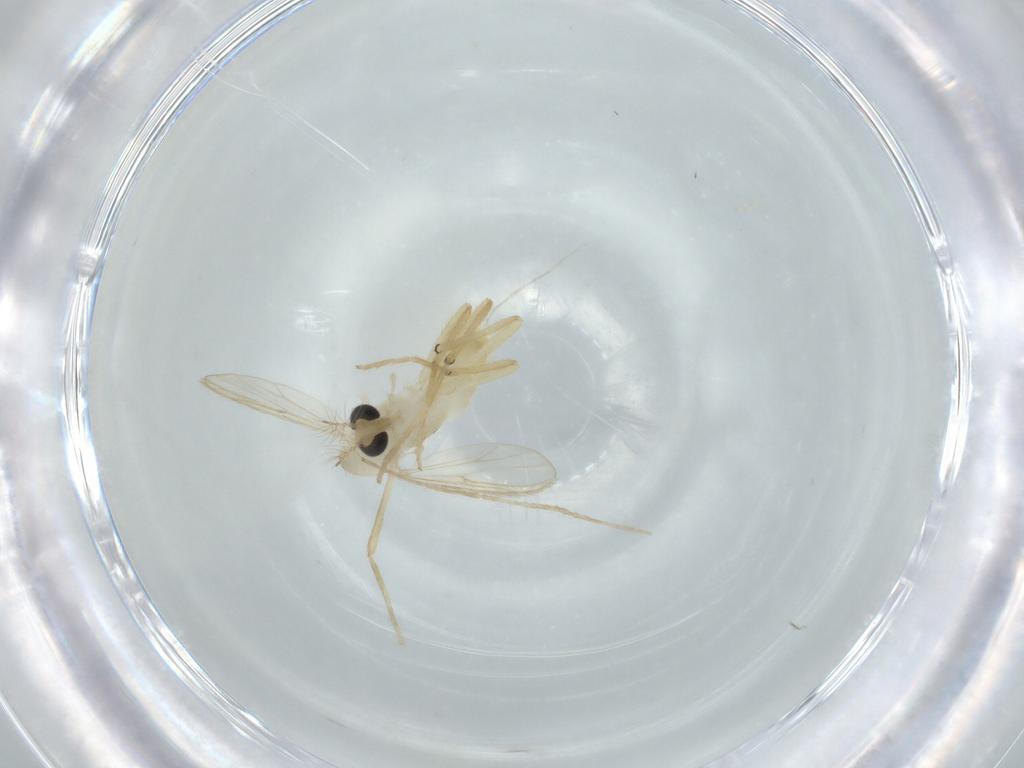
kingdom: Animalia
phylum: Arthropoda
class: Insecta
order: Diptera
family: Chironomidae
